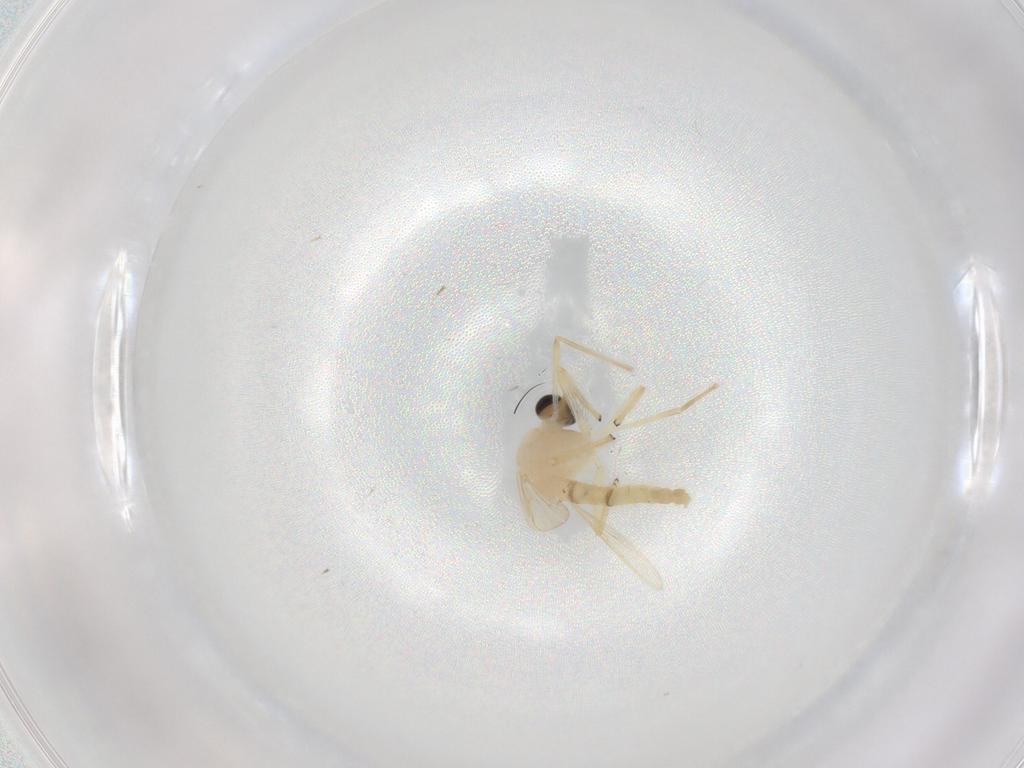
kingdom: Animalia
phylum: Arthropoda
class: Insecta
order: Diptera
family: Chironomidae
